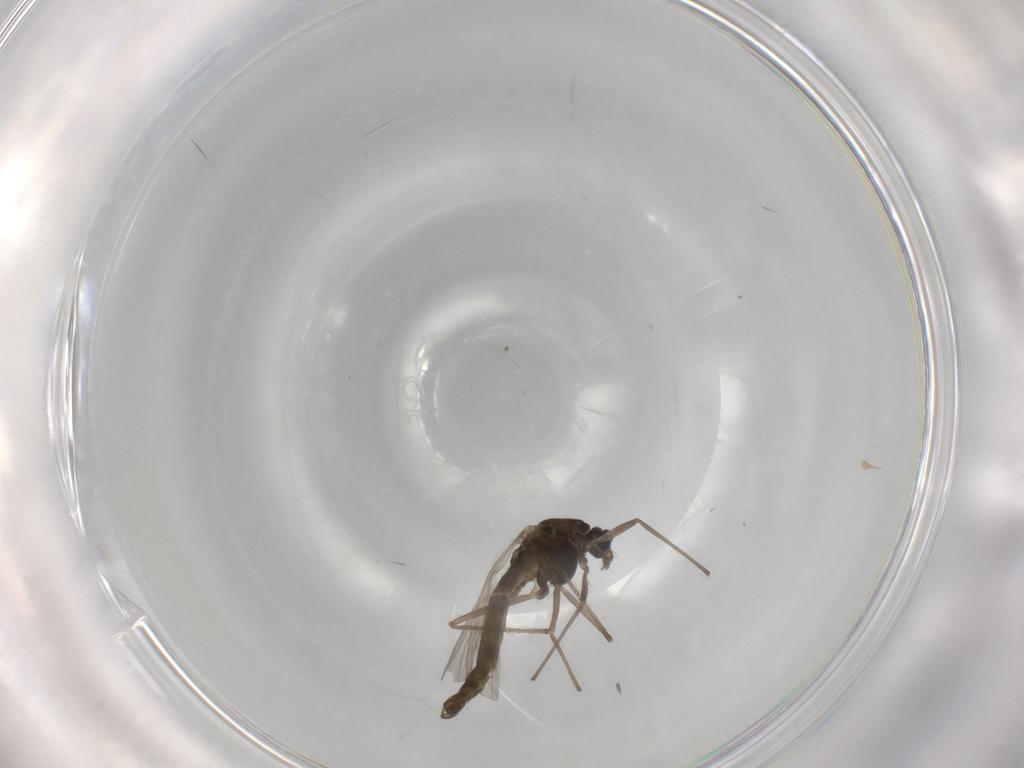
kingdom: Animalia
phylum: Arthropoda
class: Insecta
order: Diptera
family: Chironomidae
